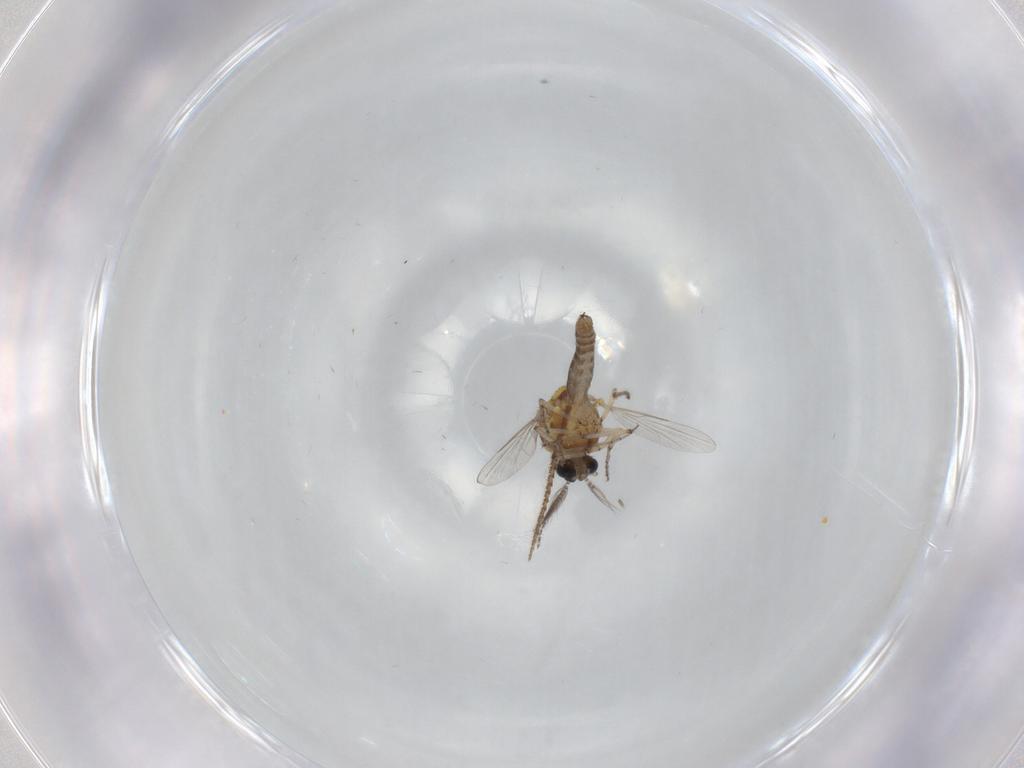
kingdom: Animalia
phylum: Arthropoda
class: Insecta
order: Diptera
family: Ceratopogonidae
